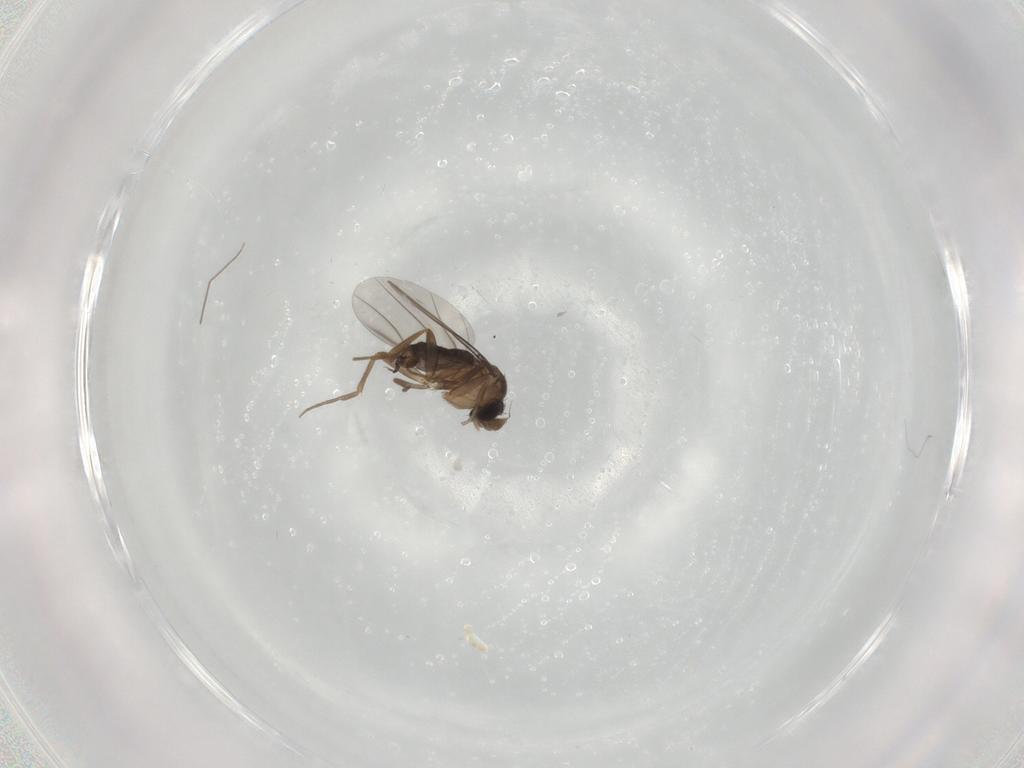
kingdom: Animalia
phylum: Arthropoda
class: Insecta
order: Diptera
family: Phoridae
